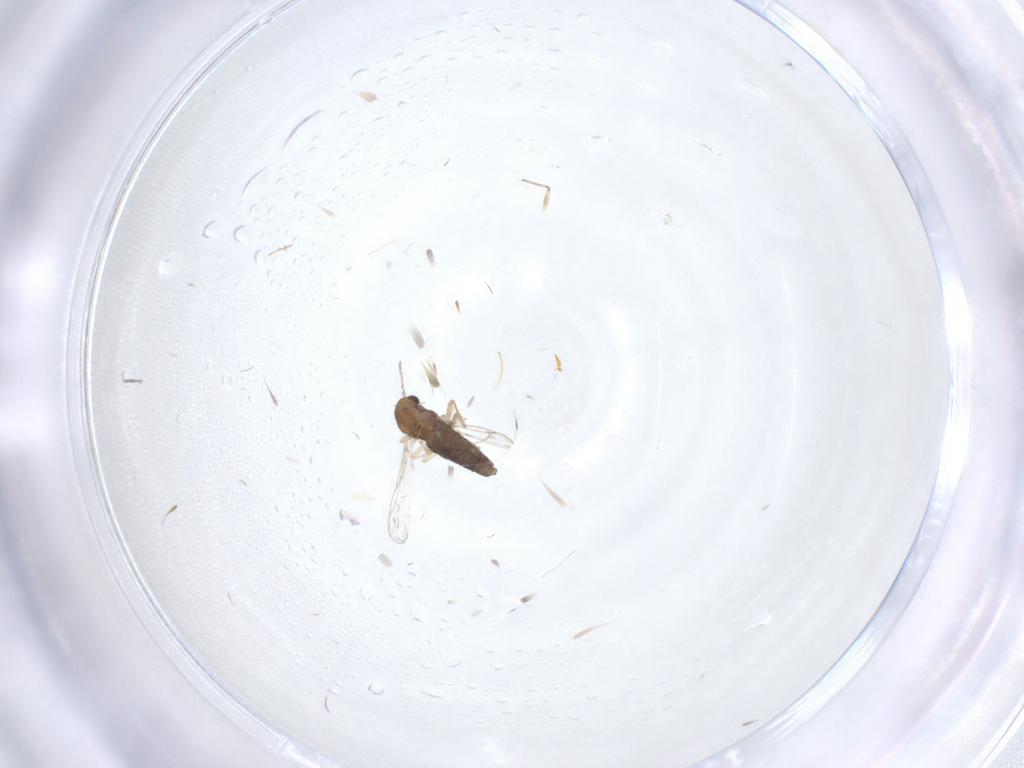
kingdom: Animalia
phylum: Arthropoda
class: Insecta
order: Diptera
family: Chironomidae
